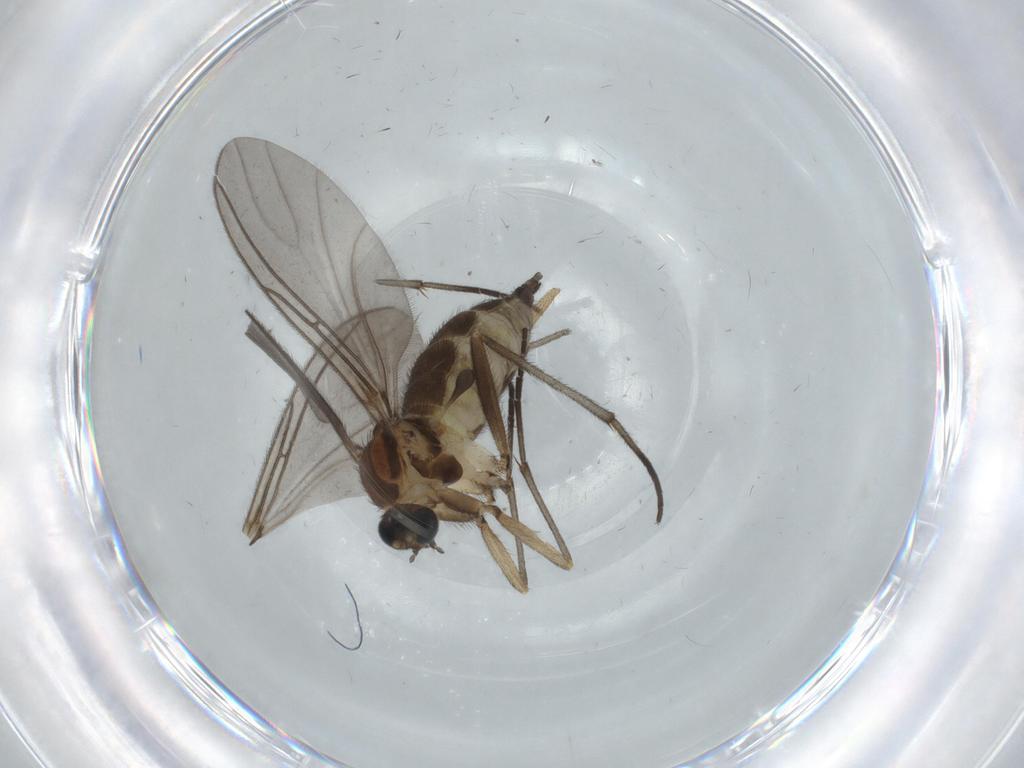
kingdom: Animalia
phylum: Arthropoda
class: Insecta
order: Diptera
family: Sciaridae
